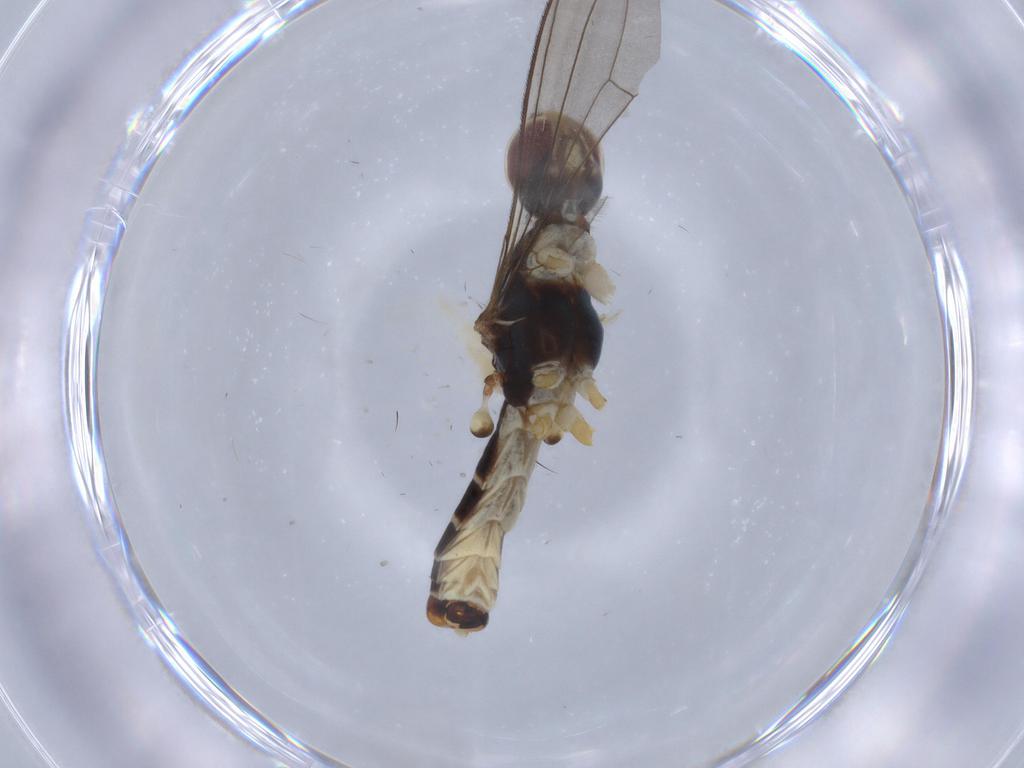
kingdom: Animalia
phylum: Arthropoda
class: Insecta
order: Diptera
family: Micropezidae
